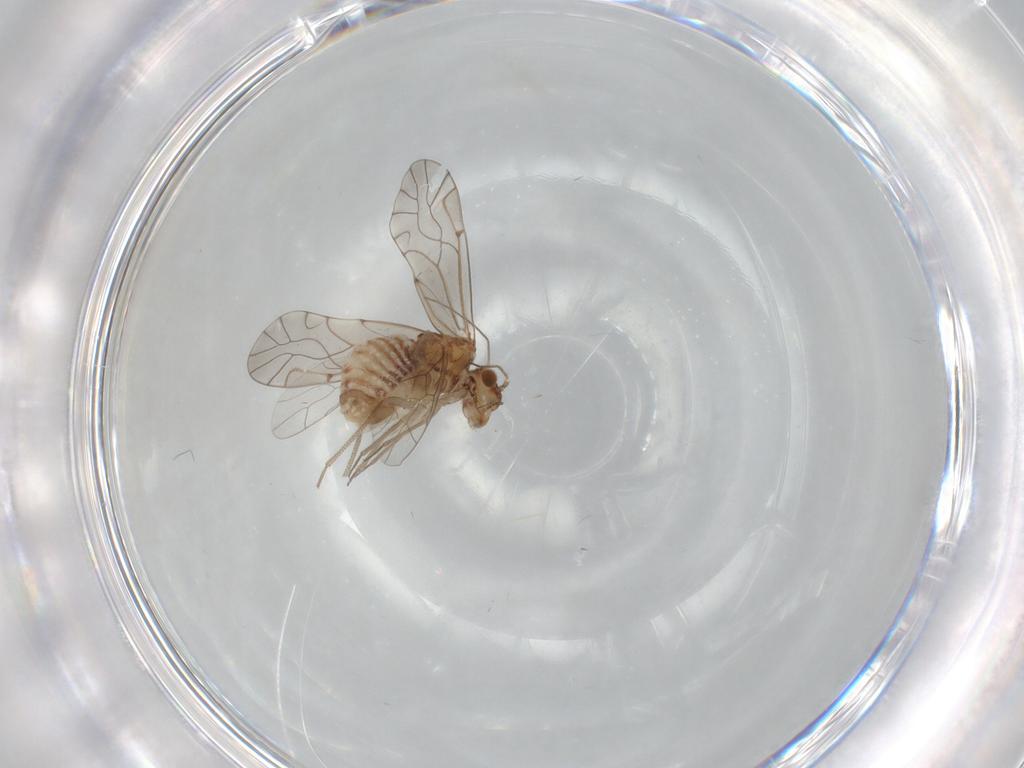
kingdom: Animalia
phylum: Arthropoda
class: Insecta
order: Psocodea
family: Lachesillidae
